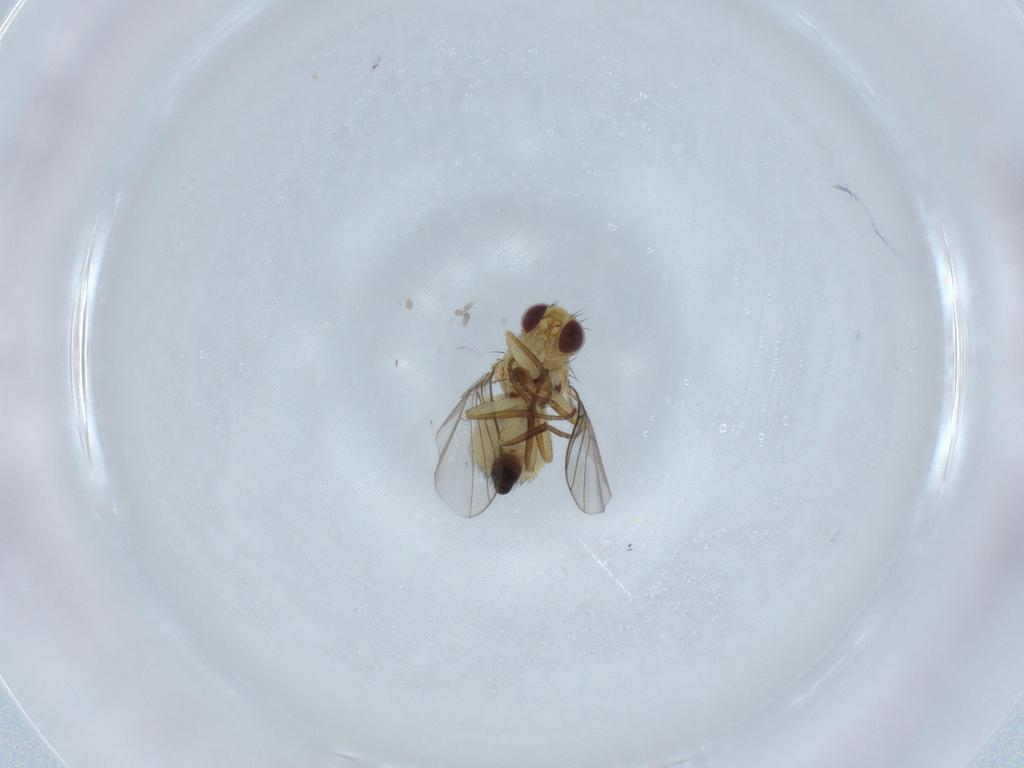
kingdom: Animalia
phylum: Arthropoda
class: Insecta
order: Diptera
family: Agromyzidae
